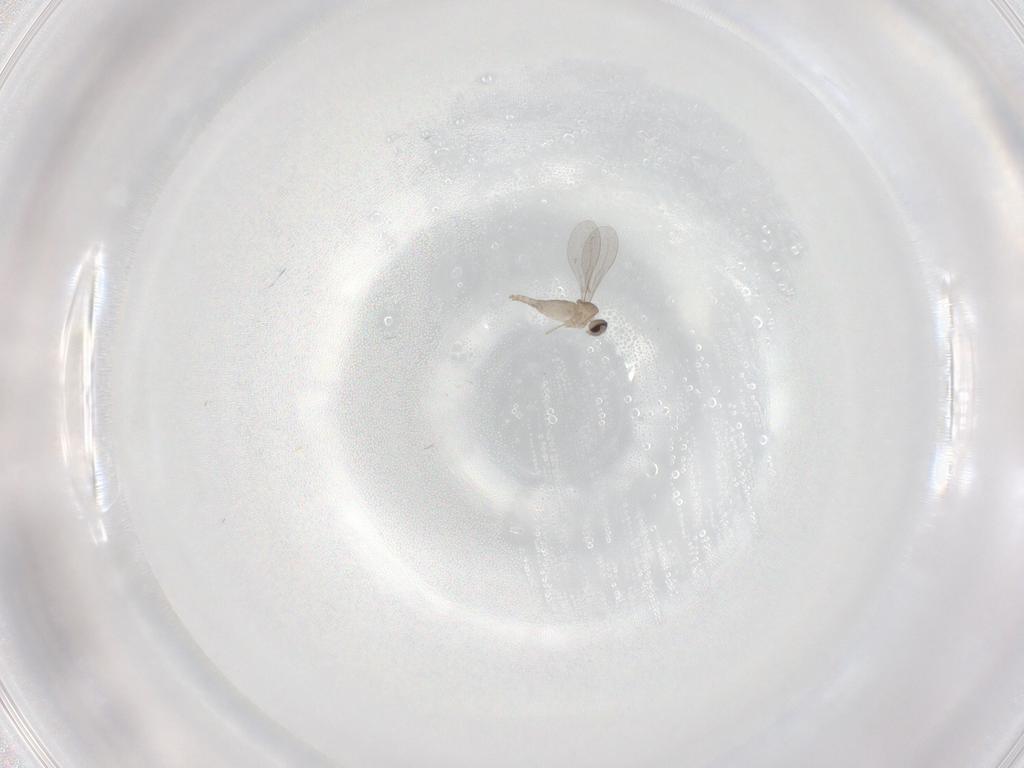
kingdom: Animalia
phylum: Arthropoda
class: Insecta
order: Diptera
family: Sciaridae
